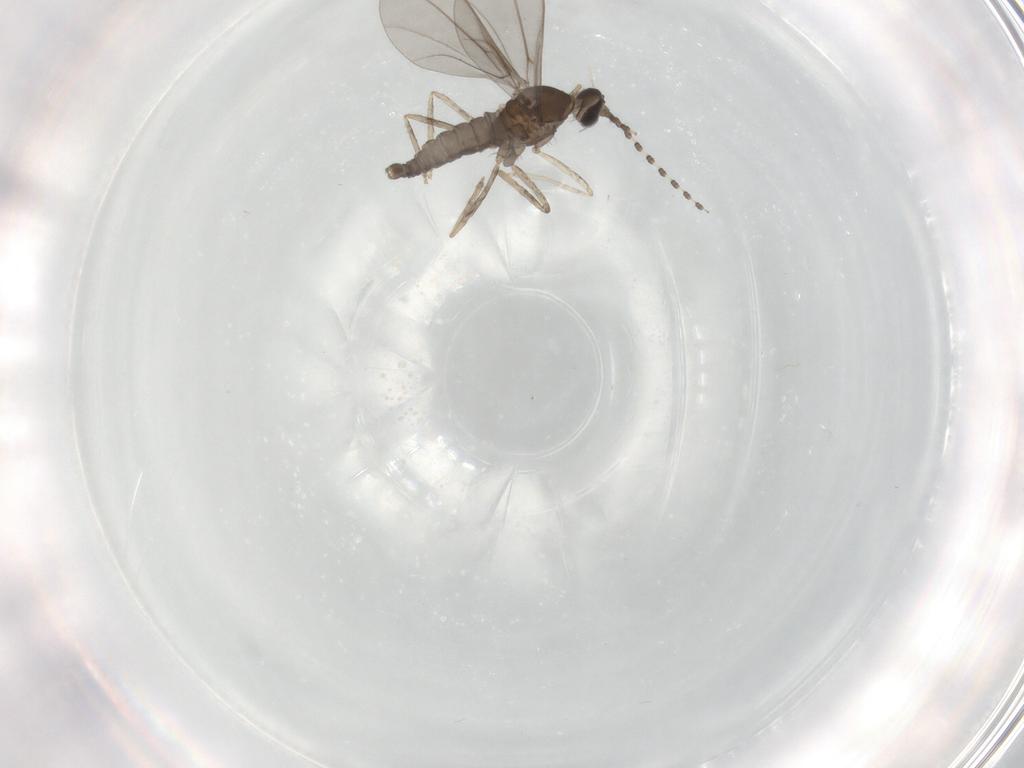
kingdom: Animalia
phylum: Arthropoda
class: Insecta
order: Diptera
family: Cecidomyiidae
